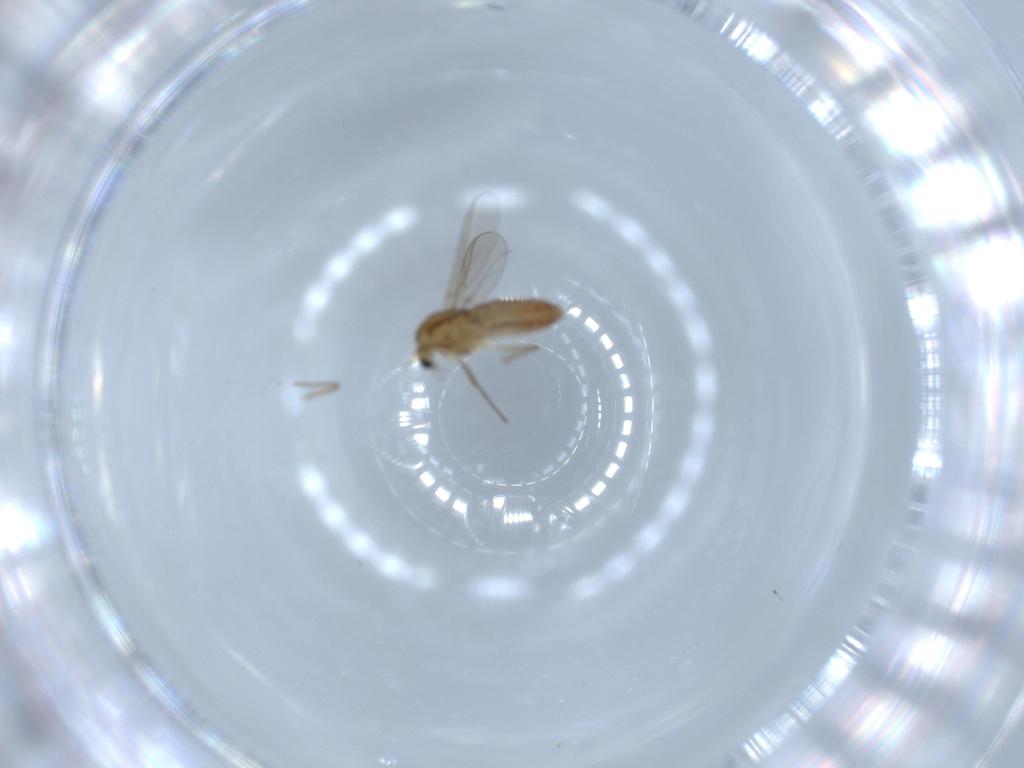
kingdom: Animalia
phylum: Arthropoda
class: Insecta
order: Diptera
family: Chironomidae
